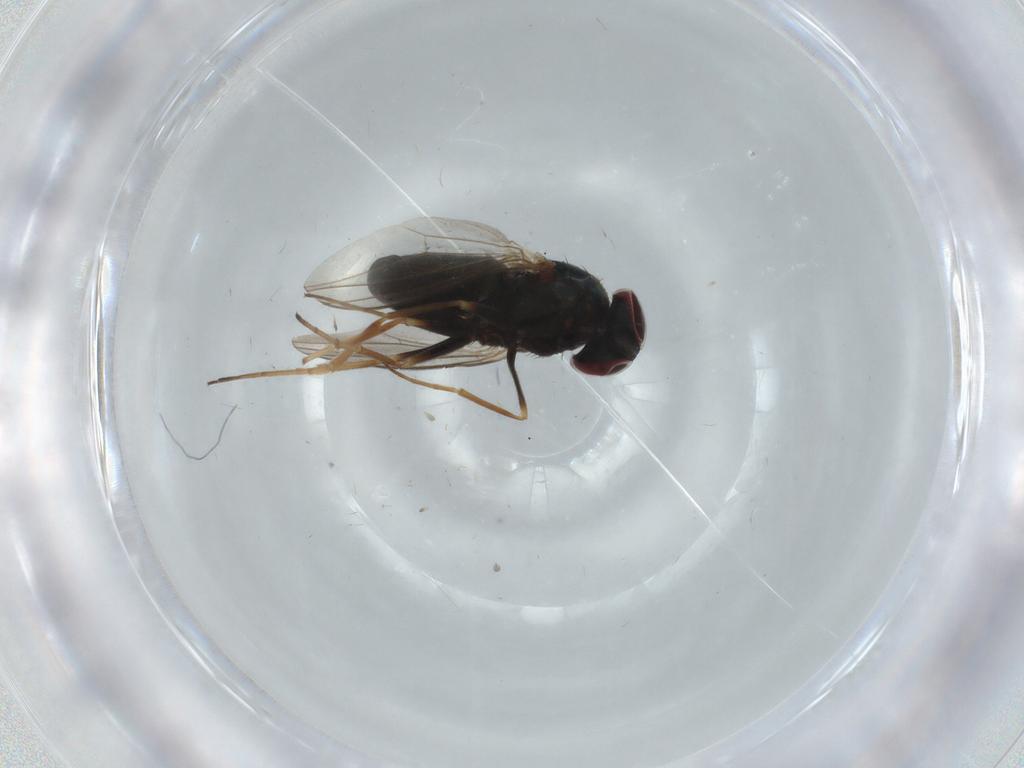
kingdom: Animalia
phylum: Arthropoda
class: Insecta
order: Diptera
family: Dolichopodidae
